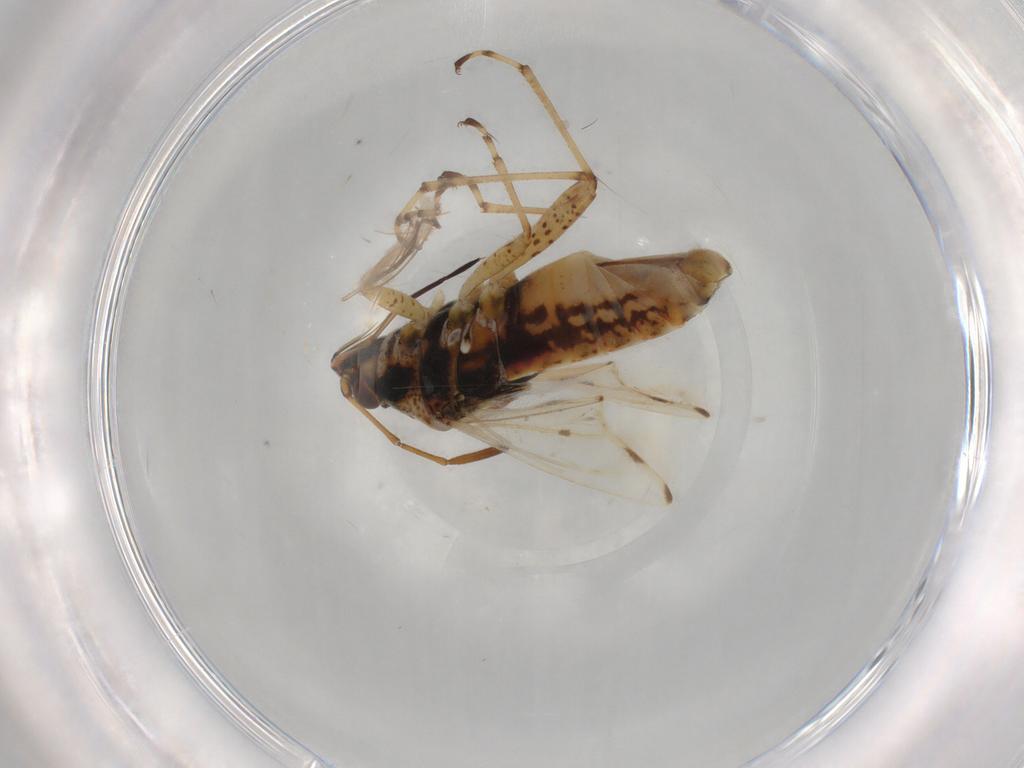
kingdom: Animalia
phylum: Arthropoda
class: Insecta
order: Hemiptera
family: Lygaeidae
